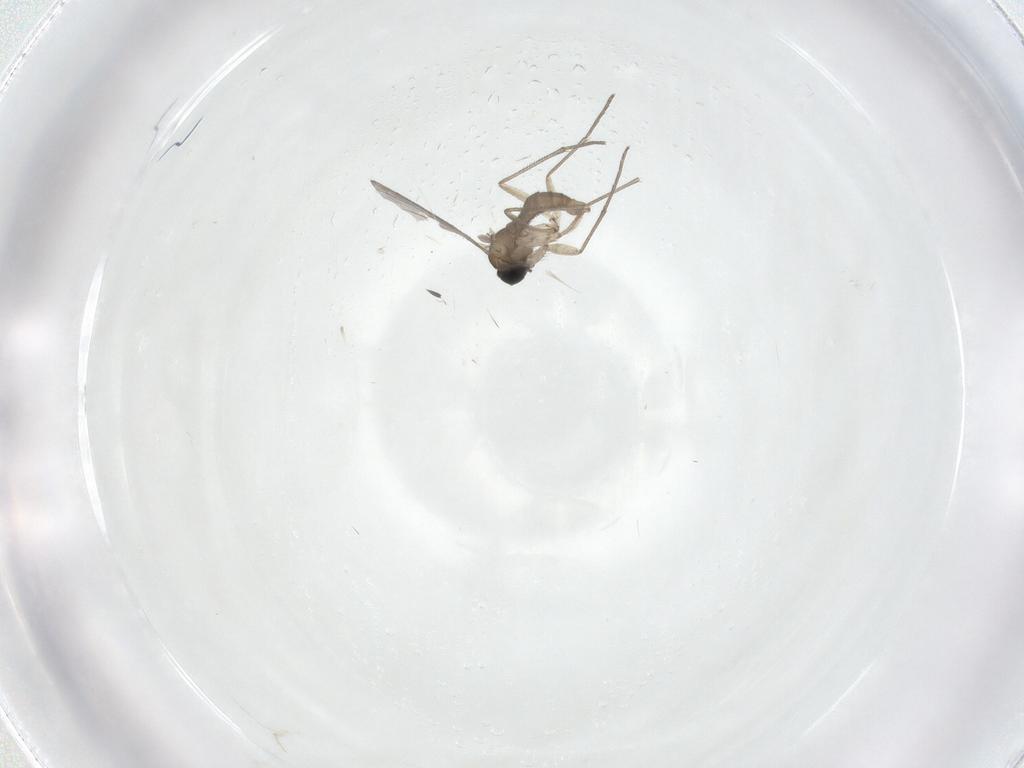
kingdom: Animalia
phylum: Arthropoda
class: Insecta
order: Diptera
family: Sciaridae
